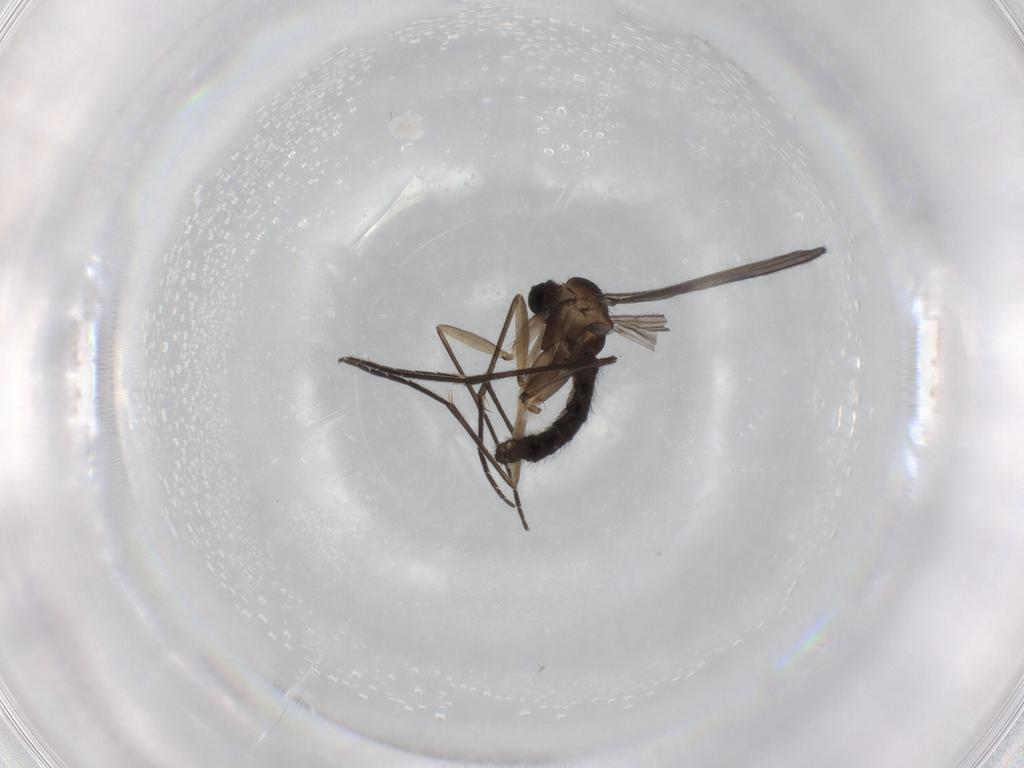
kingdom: Animalia
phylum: Arthropoda
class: Insecta
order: Diptera
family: Sciaridae
